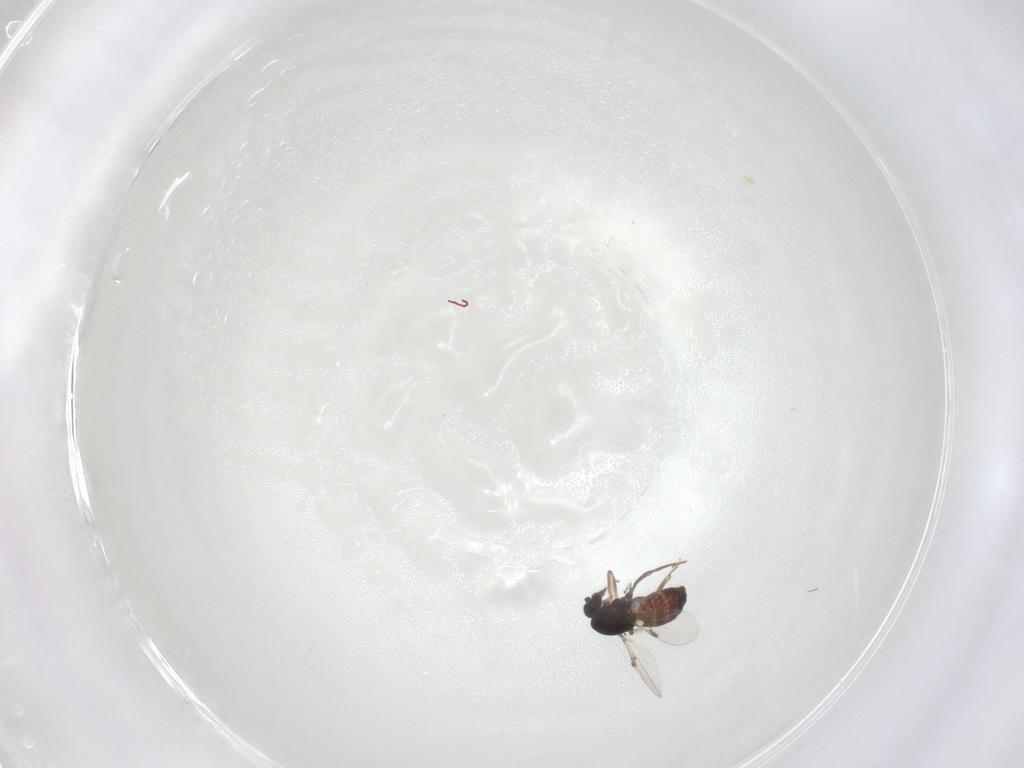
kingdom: Animalia
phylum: Arthropoda
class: Insecta
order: Diptera
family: Ceratopogonidae
